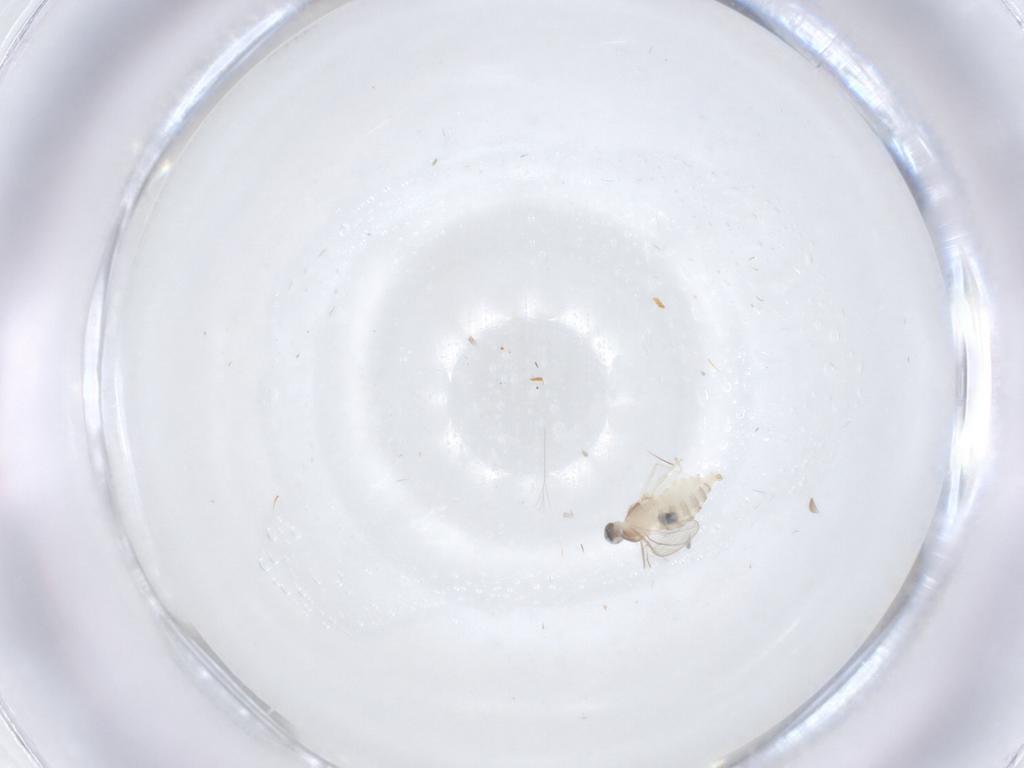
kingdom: Animalia
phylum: Arthropoda
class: Insecta
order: Diptera
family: Cecidomyiidae
